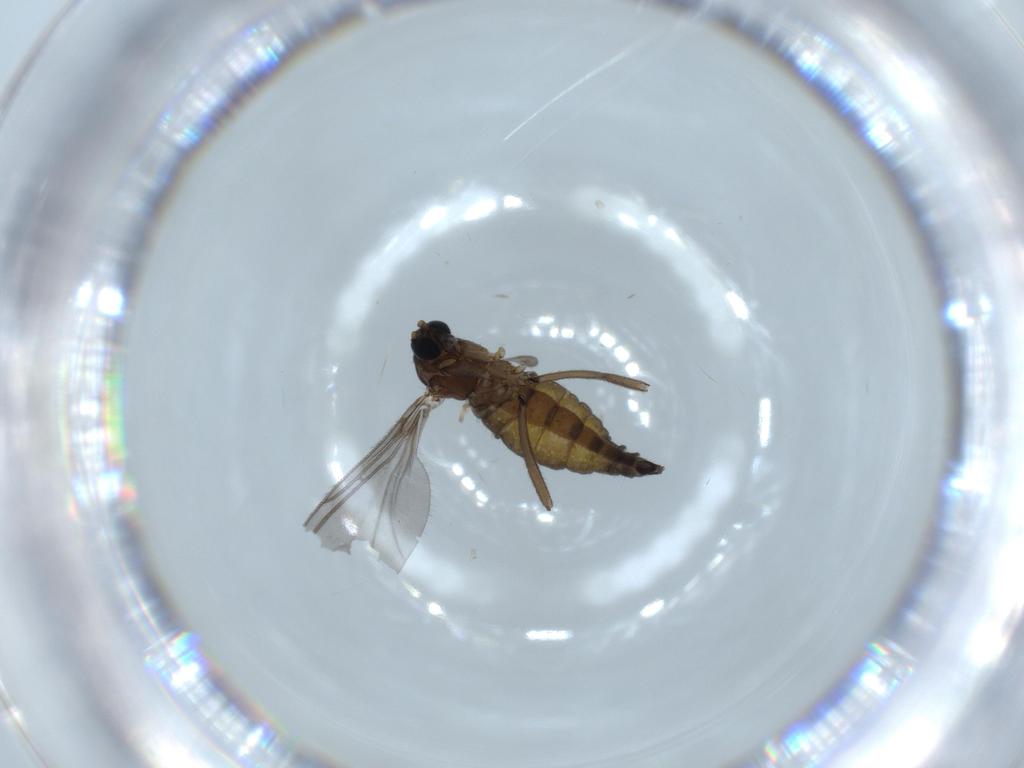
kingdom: Animalia
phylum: Arthropoda
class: Insecta
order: Diptera
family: Sciaridae
